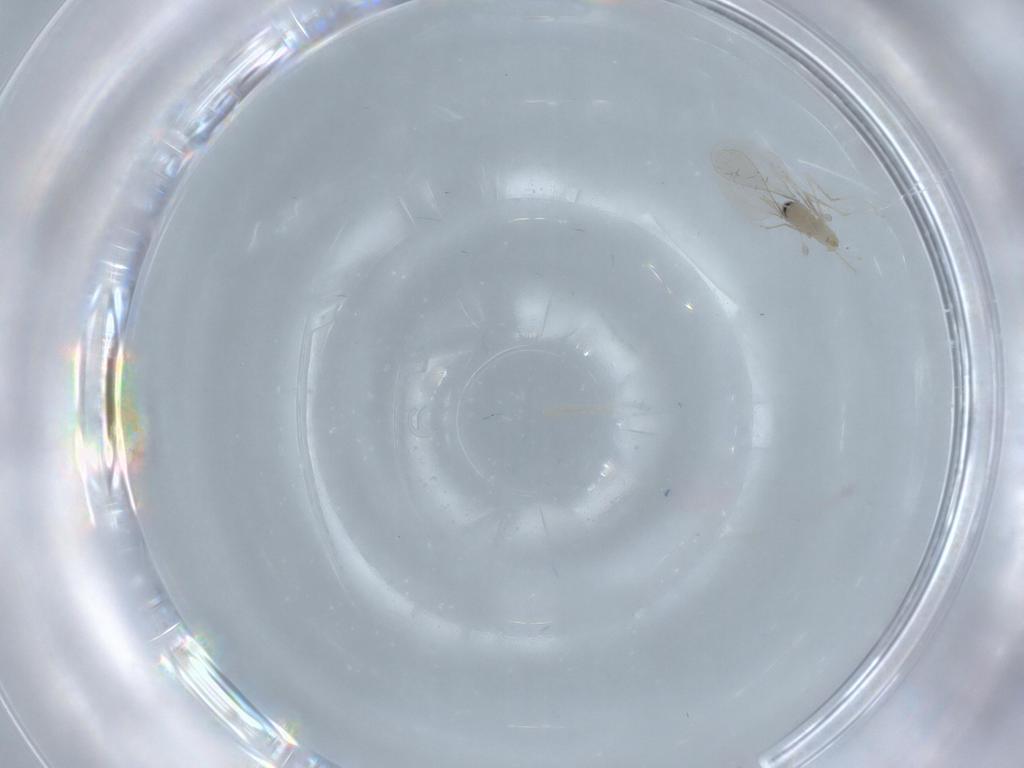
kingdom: Animalia
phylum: Arthropoda
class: Insecta
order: Diptera
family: Cecidomyiidae
